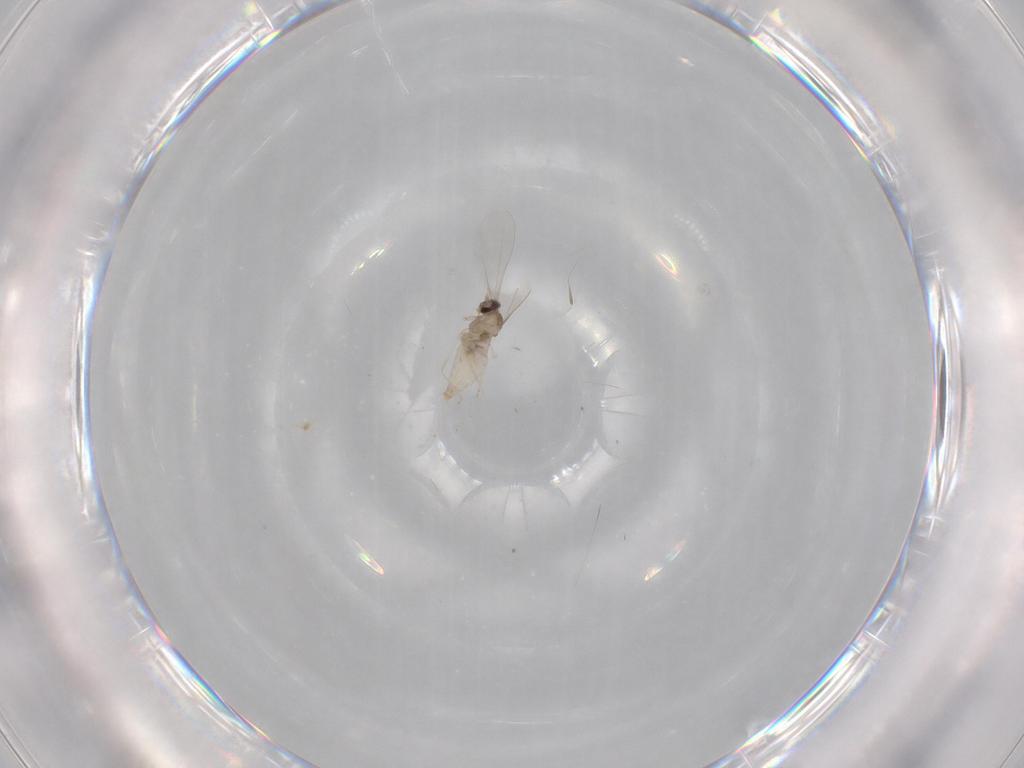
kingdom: Animalia
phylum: Arthropoda
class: Insecta
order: Diptera
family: Cecidomyiidae
